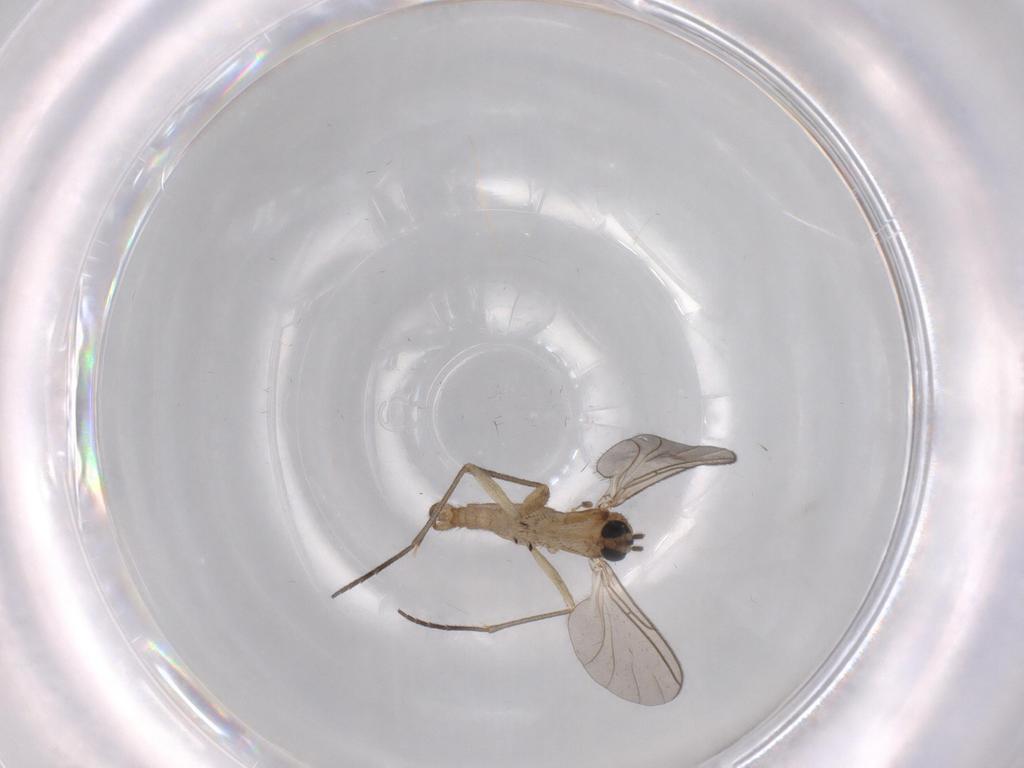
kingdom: Animalia
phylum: Arthropoda
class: Insecta
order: Diptera
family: Sciaridae
